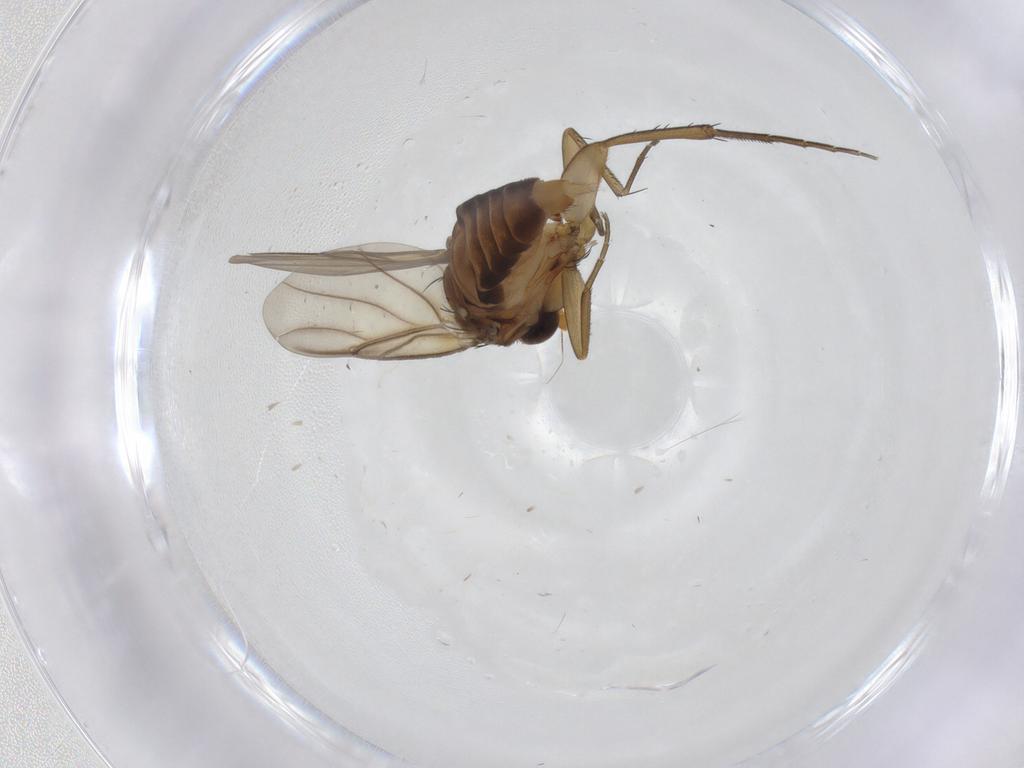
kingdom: Animalia
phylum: Arthropoda
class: Insecta
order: Diptera
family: Phoridae
